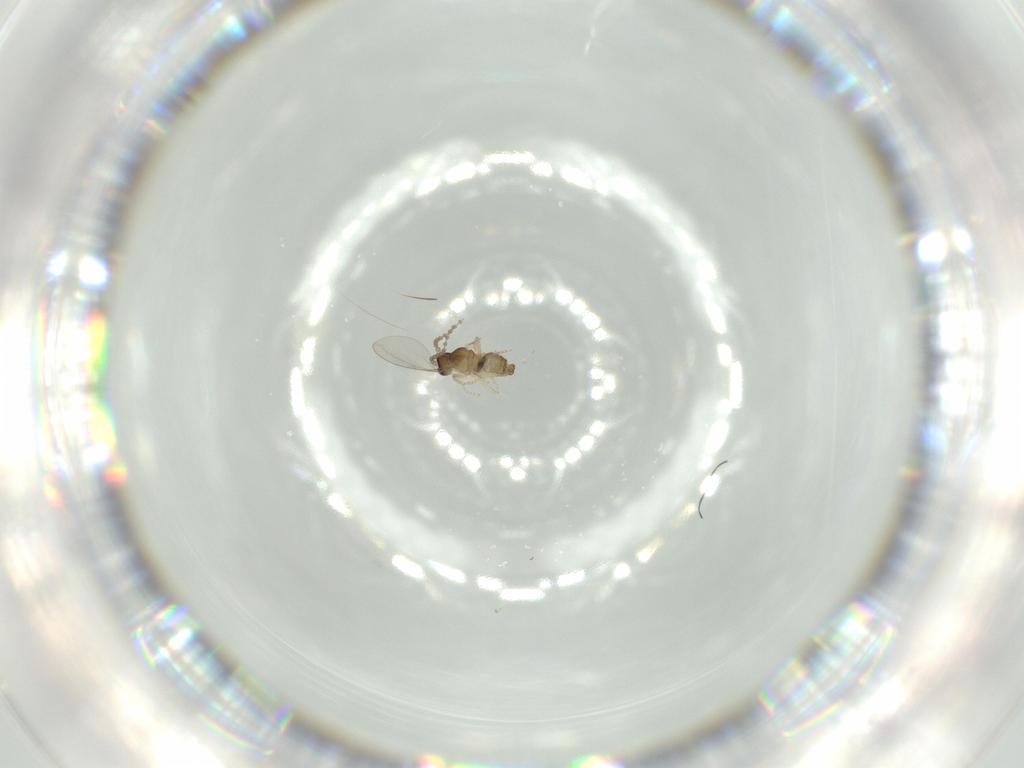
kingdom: Animalia
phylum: Arthropoda
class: Insecta
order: Diptera
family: Cecidomyiidae
